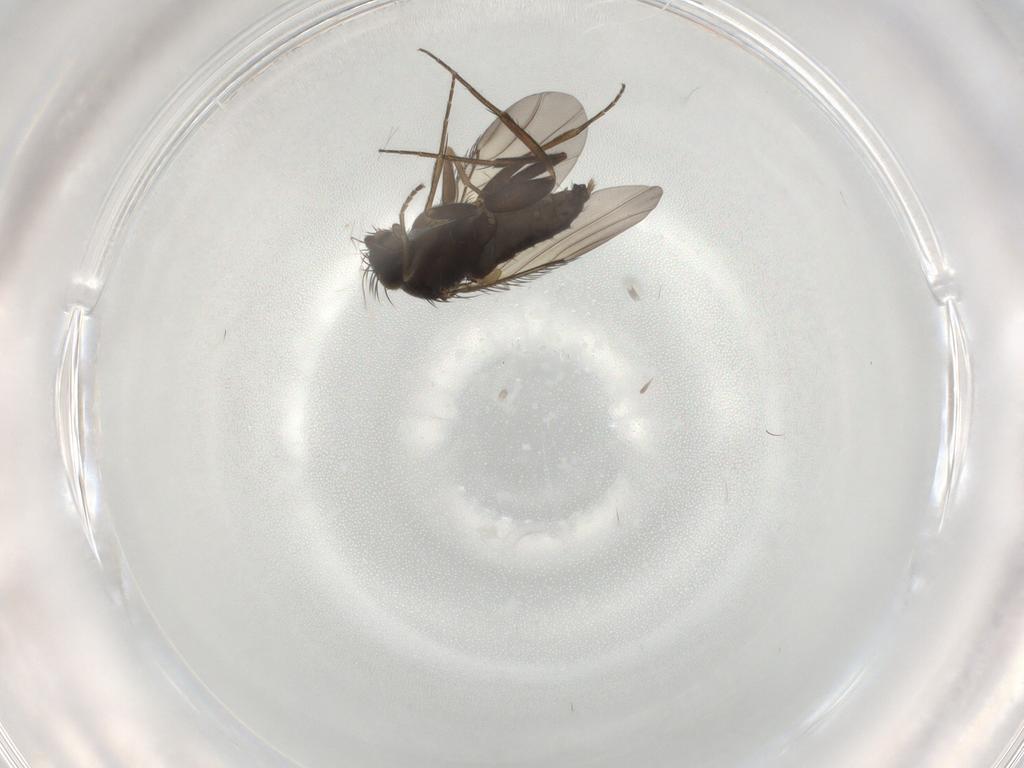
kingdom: Animalia
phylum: Arthropoda
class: Insecta
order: Diptera
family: Phoridae
